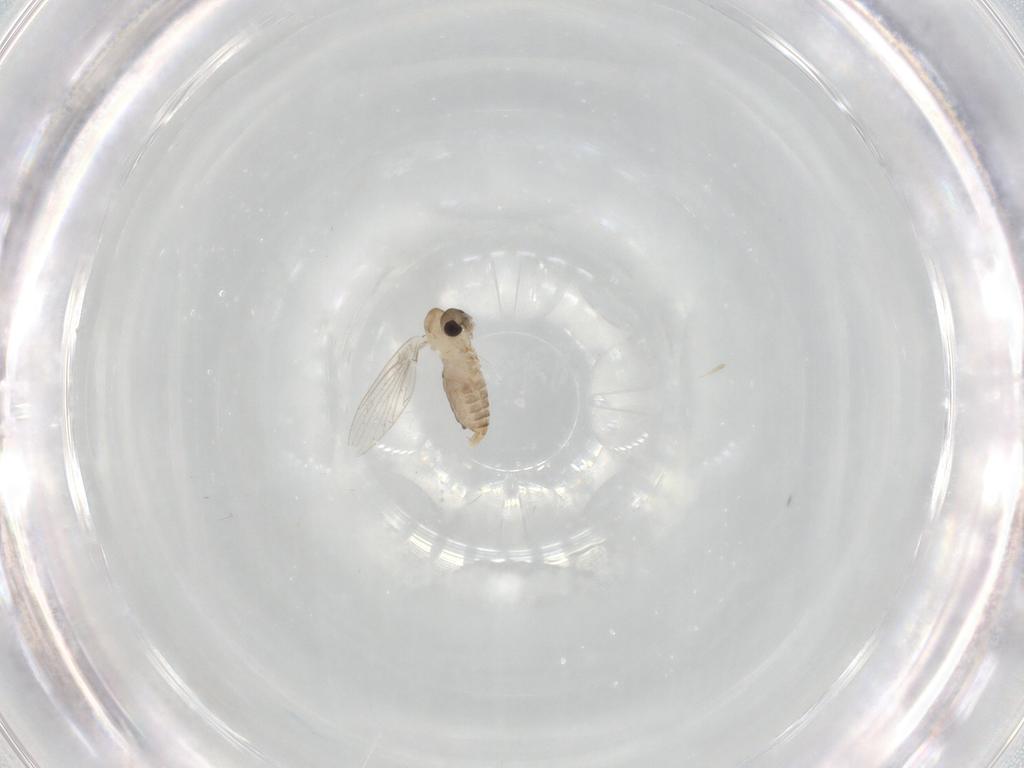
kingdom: Animalia
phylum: Arthropoda
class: Insecta
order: Diptera
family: Psychodidae
